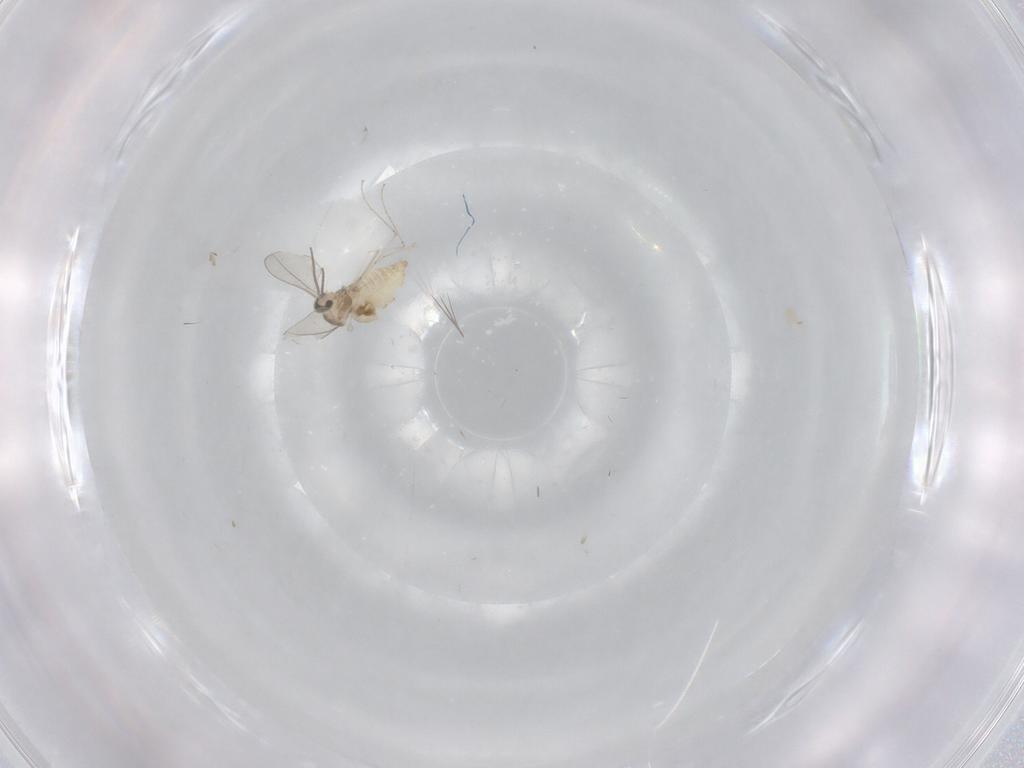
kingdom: Animalia
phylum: Arthropoda
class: Insecta
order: Diptera
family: Cecidomyiidae
